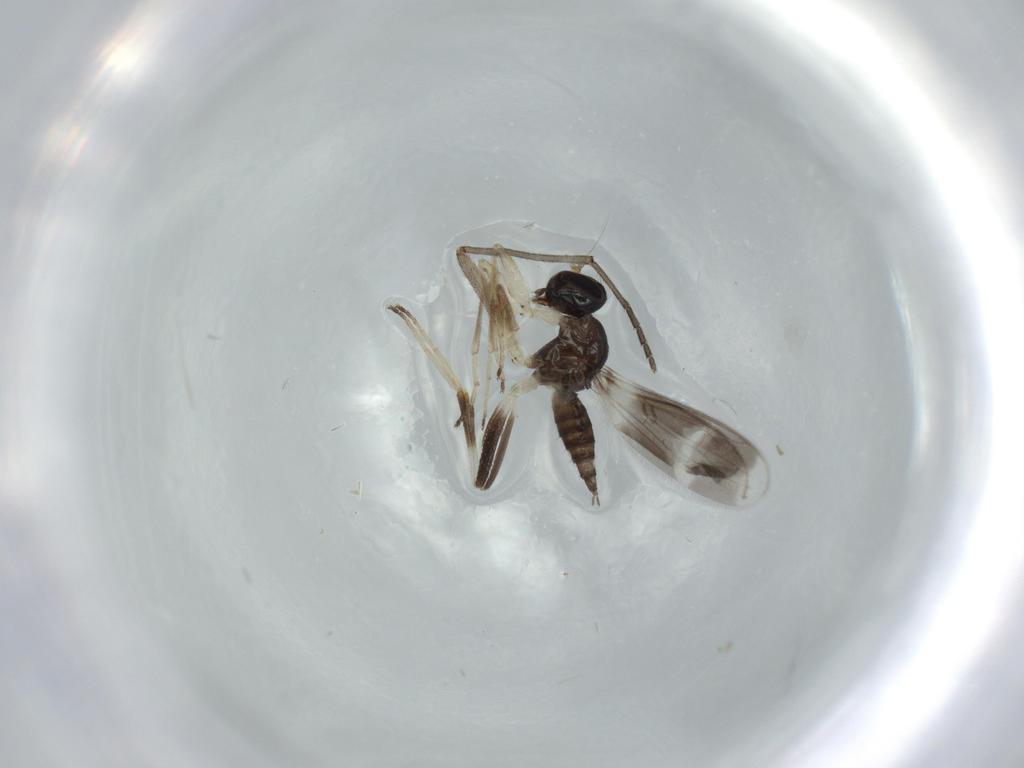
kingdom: Animalia
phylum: Arthropoda
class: Insecta
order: Diptera
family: Hybotidae
